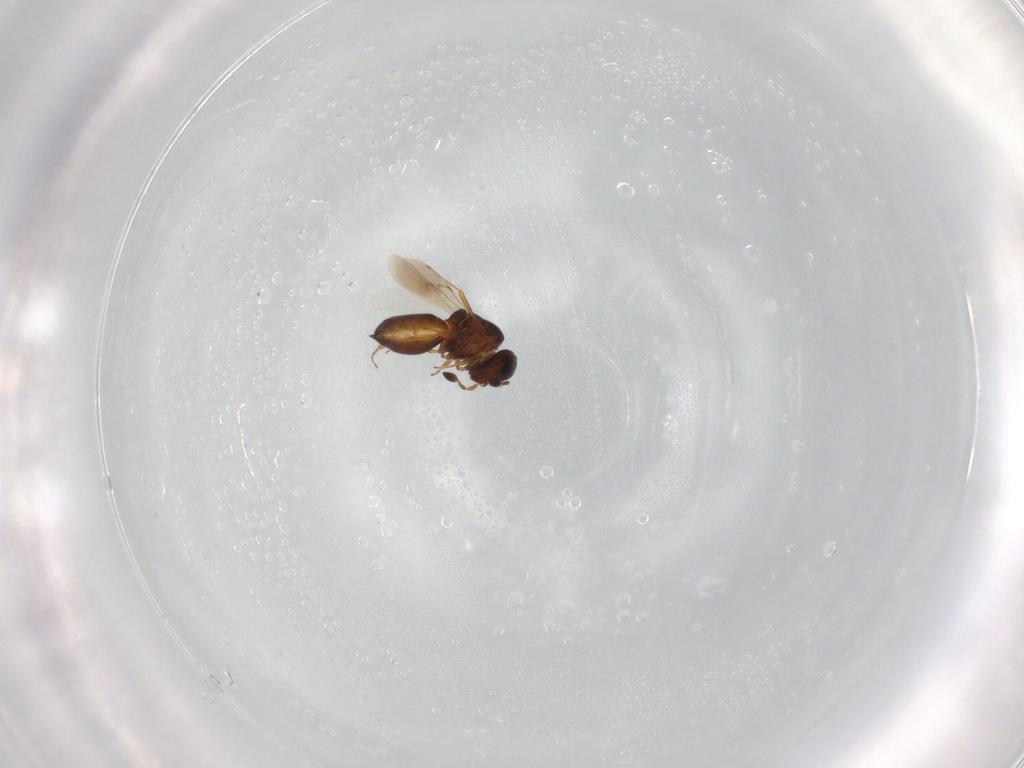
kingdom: Animalia
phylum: Arthropoda
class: Insecta
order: Hymenoptera
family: Scelionidae
